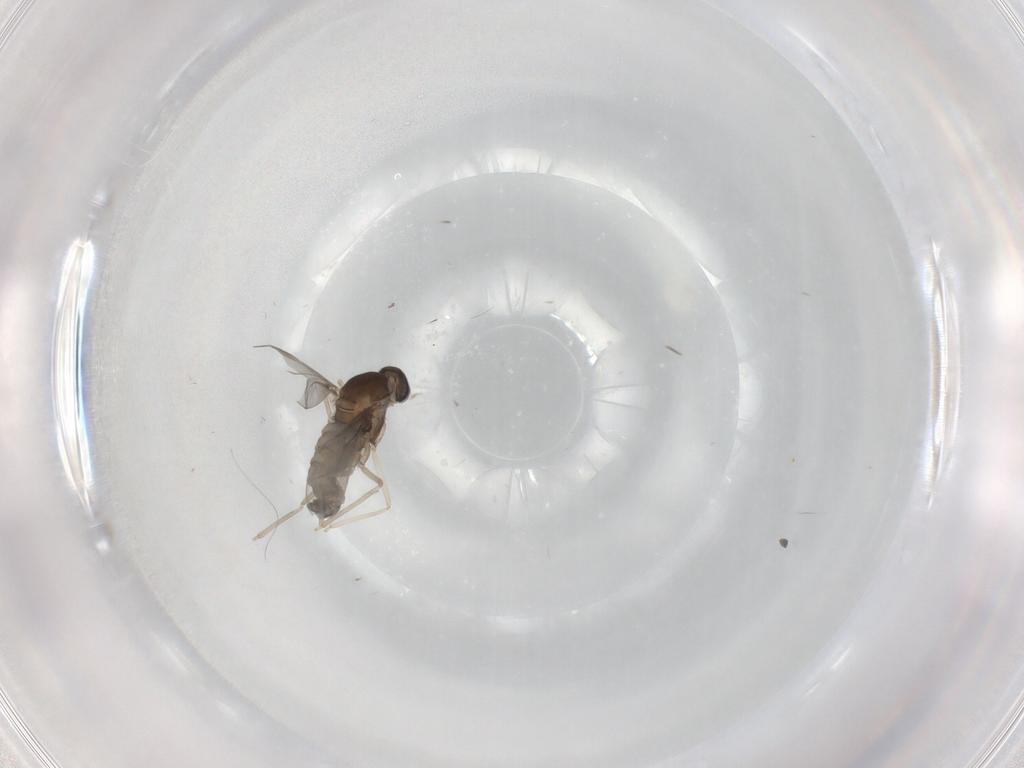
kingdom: Animalia
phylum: Arthropoda
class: Insecta
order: Diptera
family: Cecidomyiidae
